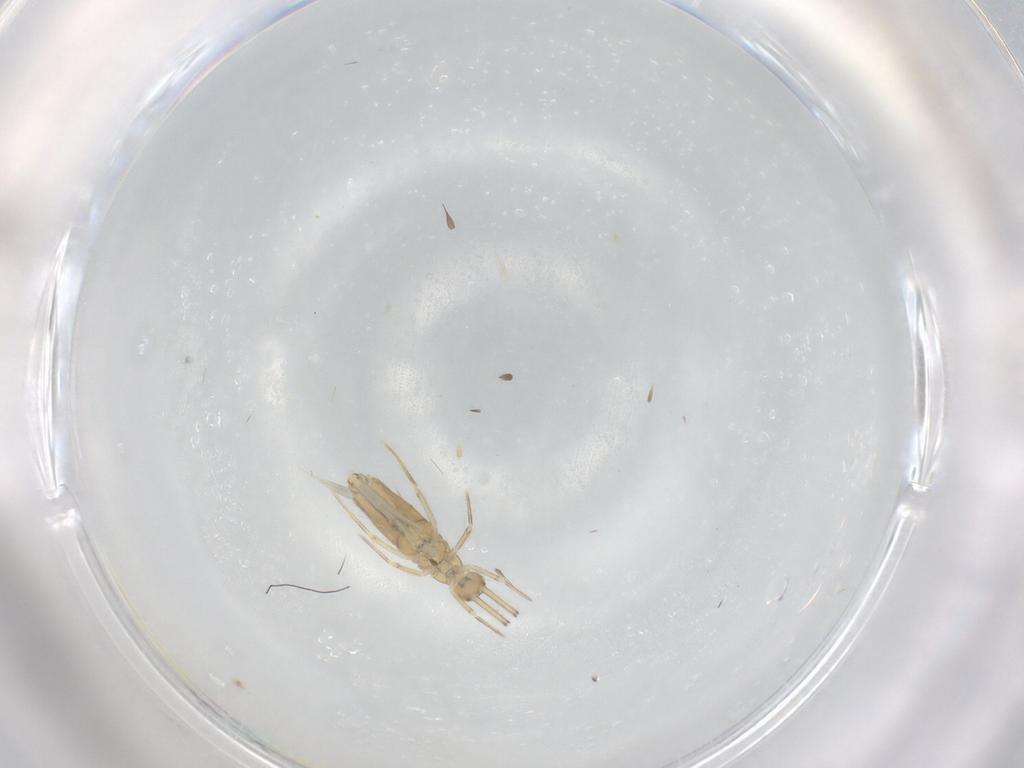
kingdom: Animalia
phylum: Arthropoda
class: Collembola
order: Entomobryomorpha
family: Paronellidae
